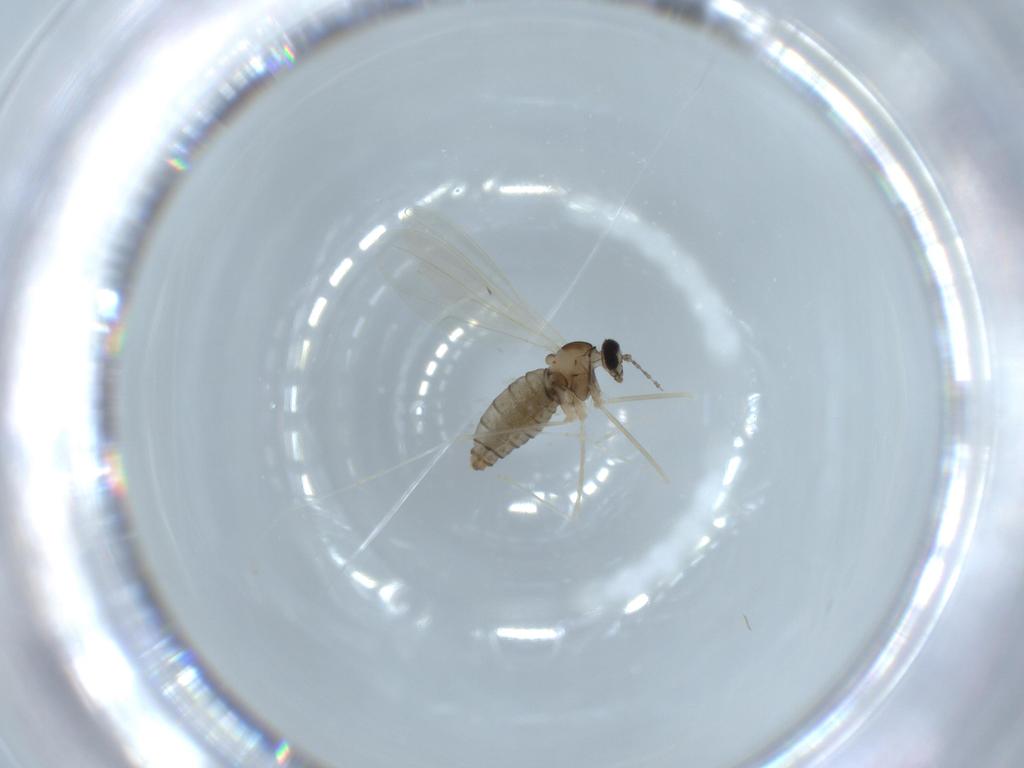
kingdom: Animalia
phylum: Arthropoda
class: Insecta
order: Diptera
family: Cecidomyiidae
